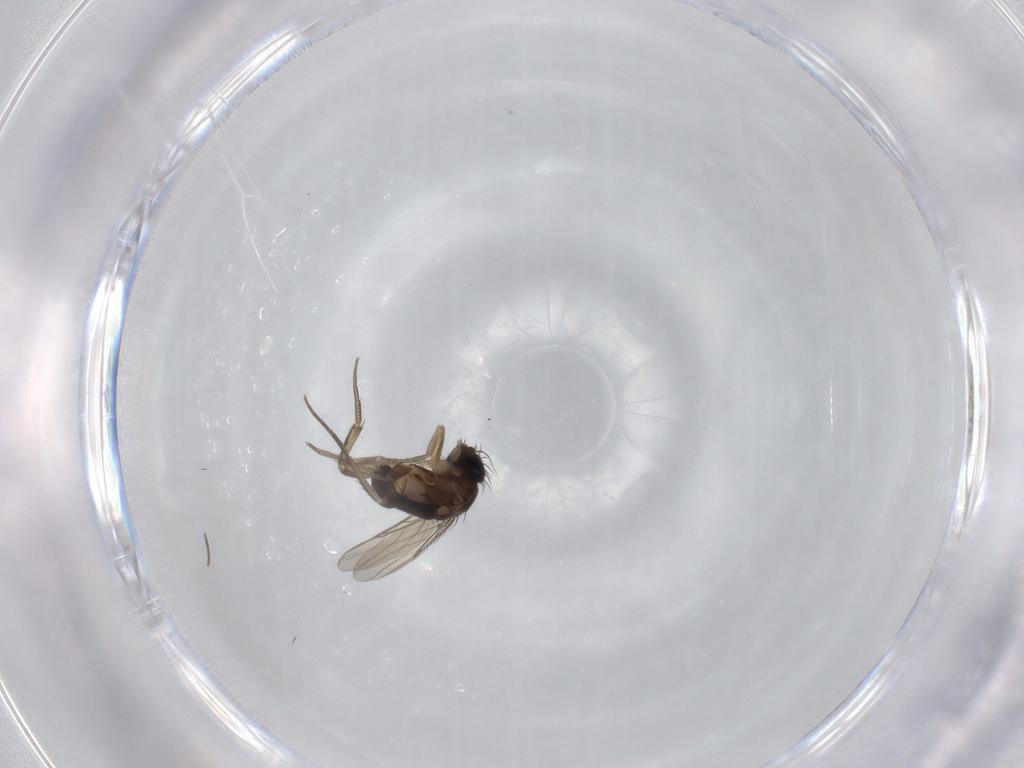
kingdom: Animalia
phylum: Arthropoda
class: Insecta
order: Diptera
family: Phoridae
